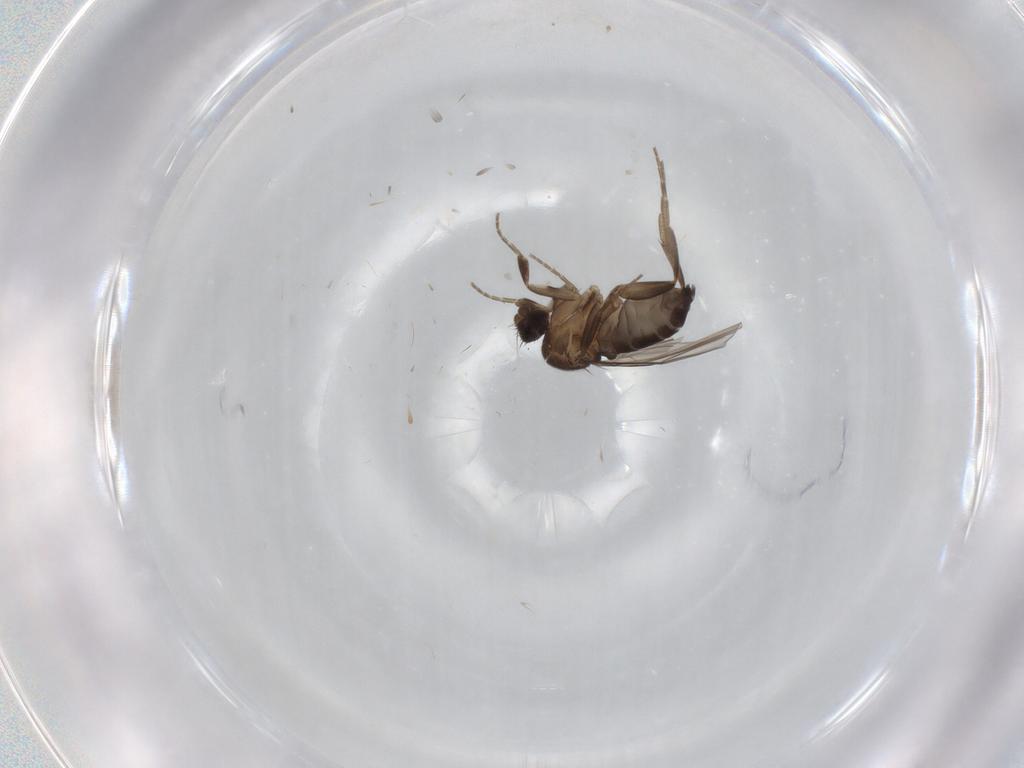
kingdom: Animalia
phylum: Arthropoda
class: Insecta
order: Diptera
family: Phoridae
